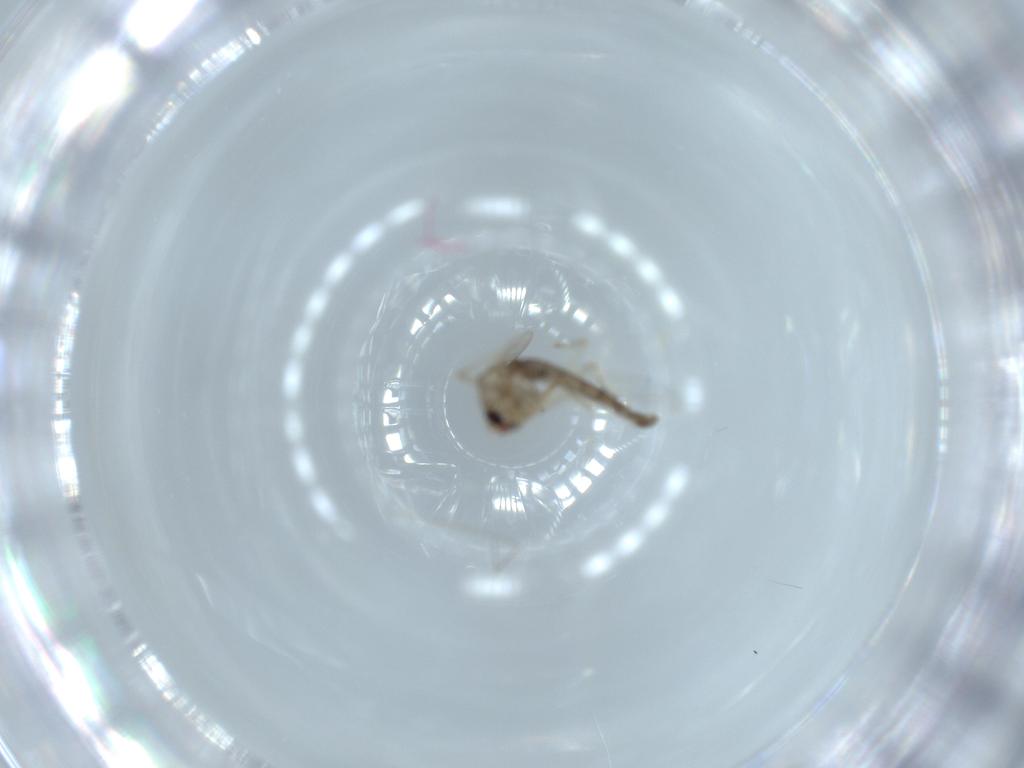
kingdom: Animalia
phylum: Arthropoda
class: Insecta
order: Diptera
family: Chironomidae
